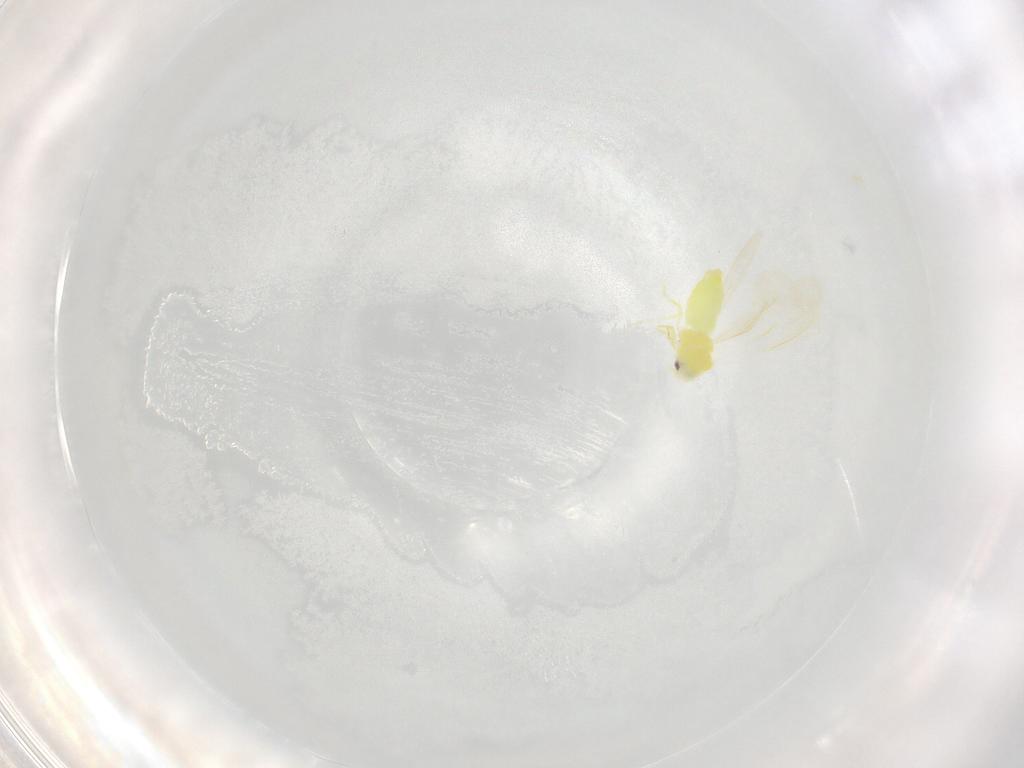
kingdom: Animalia
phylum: Arthropoda
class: Insecta
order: Hemiptera
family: Aleyrodidae
